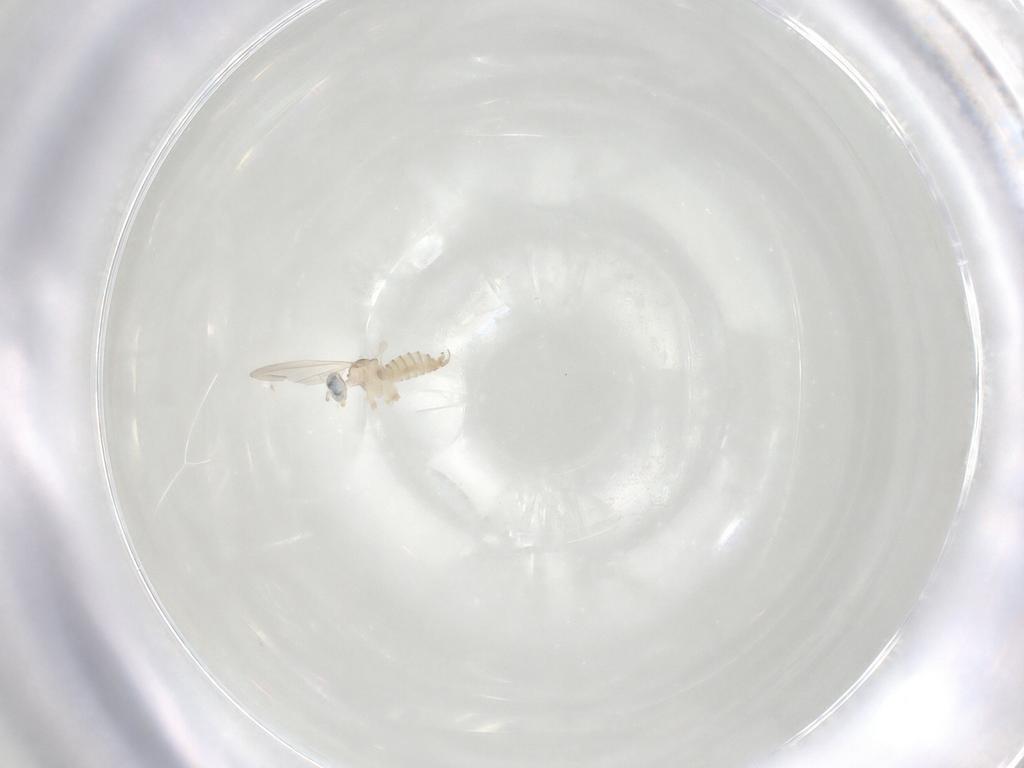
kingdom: Animalia
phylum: Arthropoda
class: Insecta
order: Diptera
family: Cecidomyiidae
